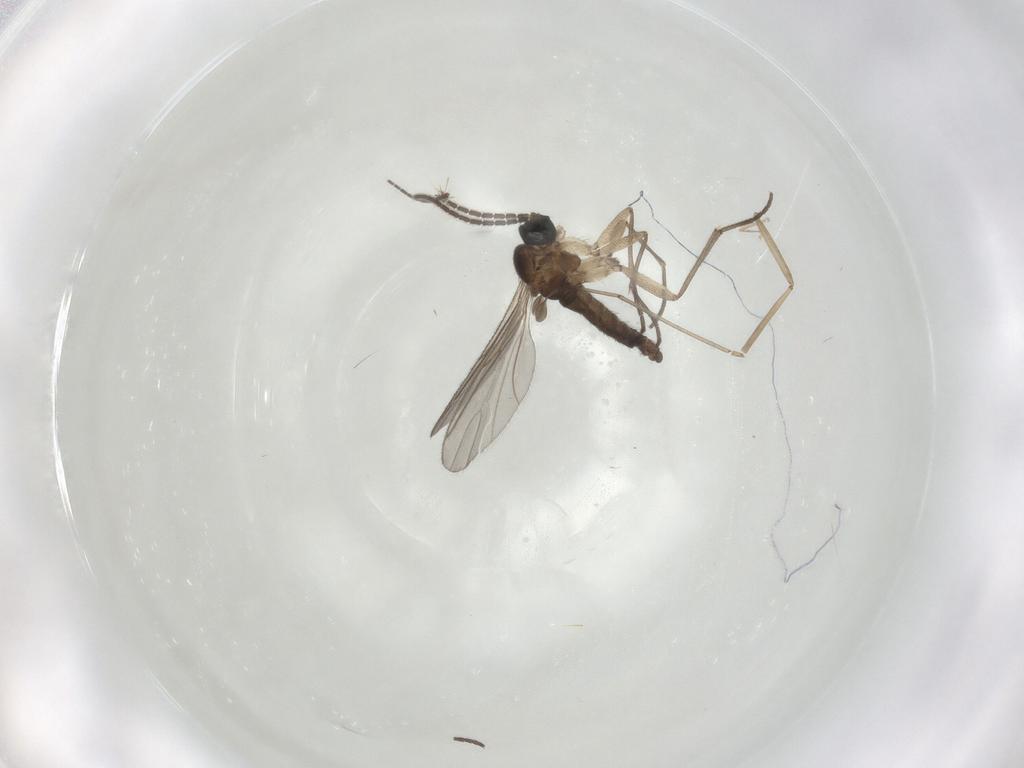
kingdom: Animalia
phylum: Arthropoda
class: Insecta
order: Diptera
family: Sciaridae
